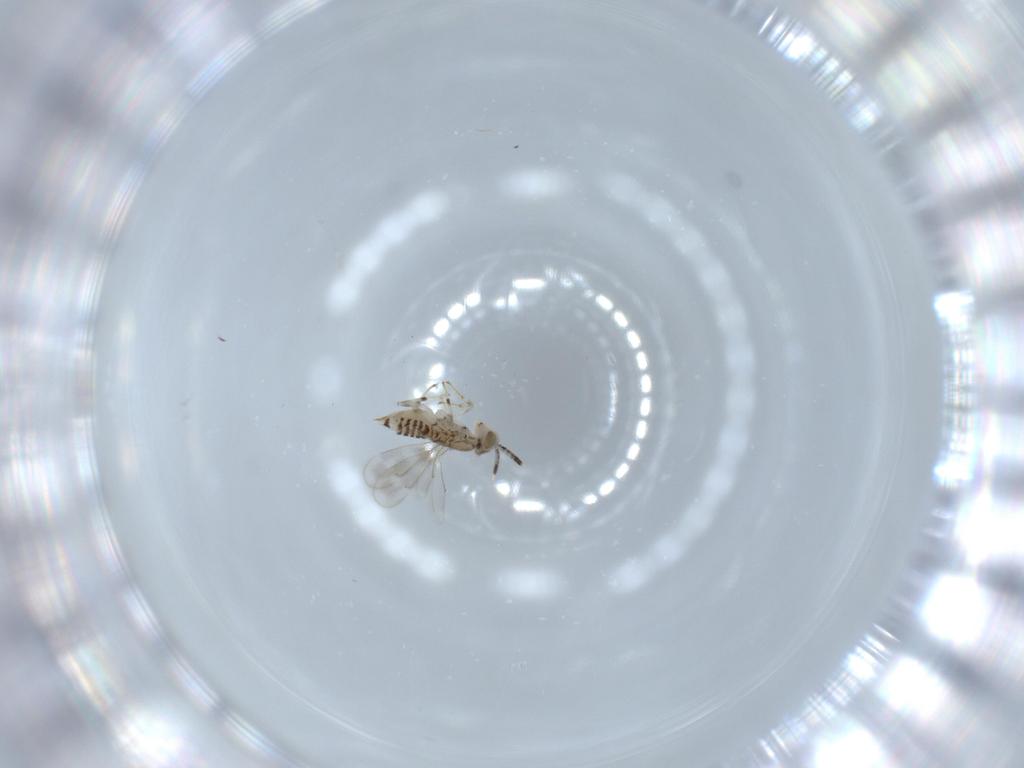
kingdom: Animalia
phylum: Arthropoda
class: Insecta
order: Hymenoptera
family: Aphelinidae
